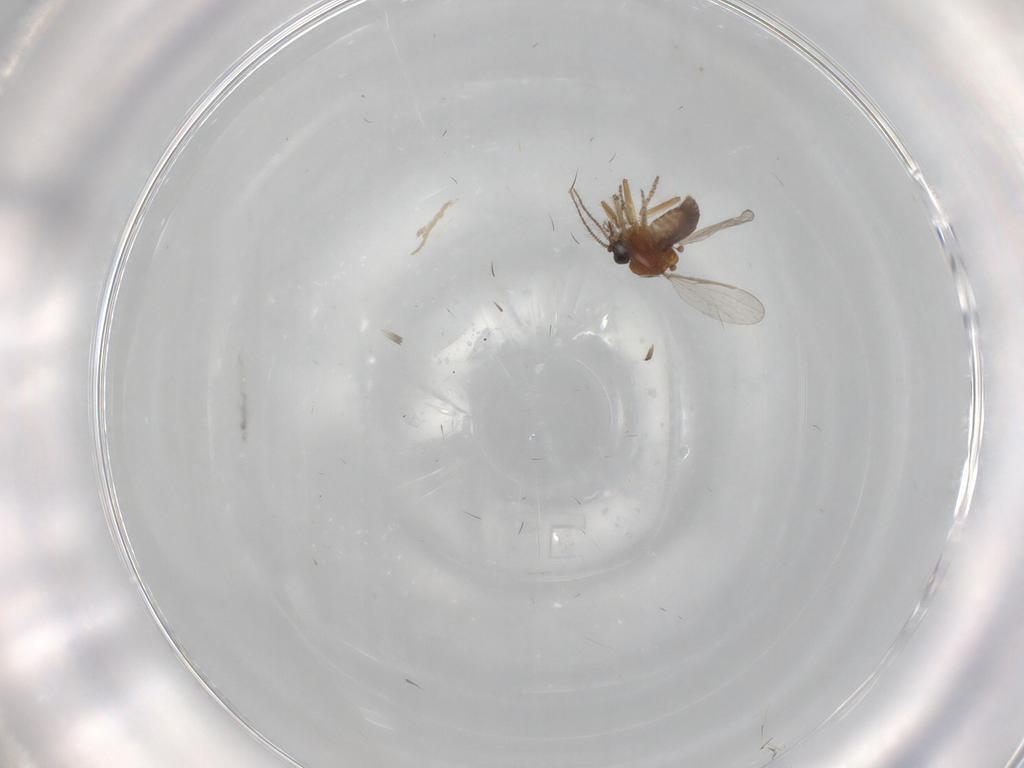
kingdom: Animalia
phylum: Arthropoda
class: Insecta
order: Diptera
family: Ceratopogonidae
